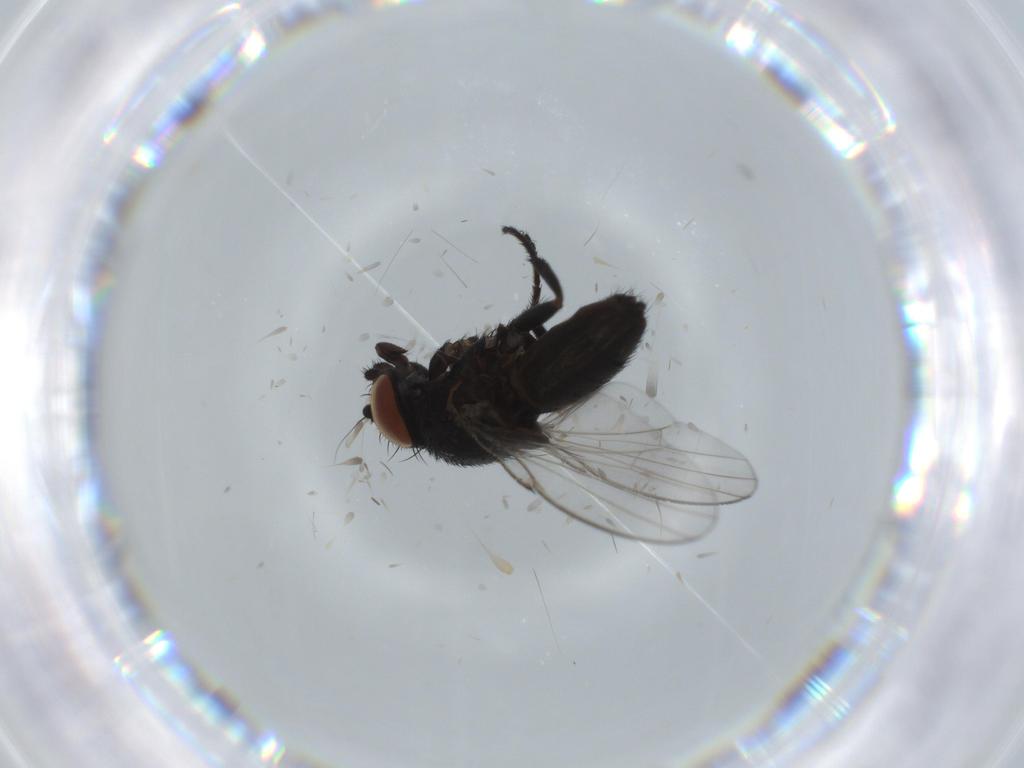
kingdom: Animalia
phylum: Arthropoda
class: Insecta
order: Diptera
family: Milichiidae
